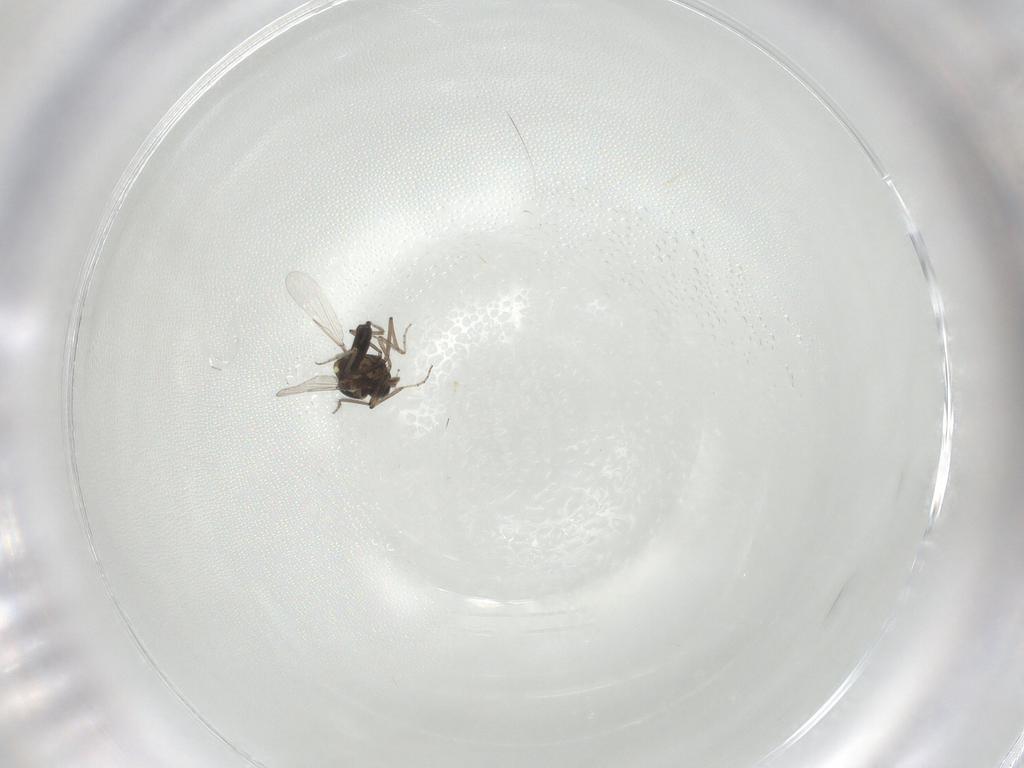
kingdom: Animalia
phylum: Arthropoda
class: Insecta
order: Diptera
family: Ceratopogonidae
